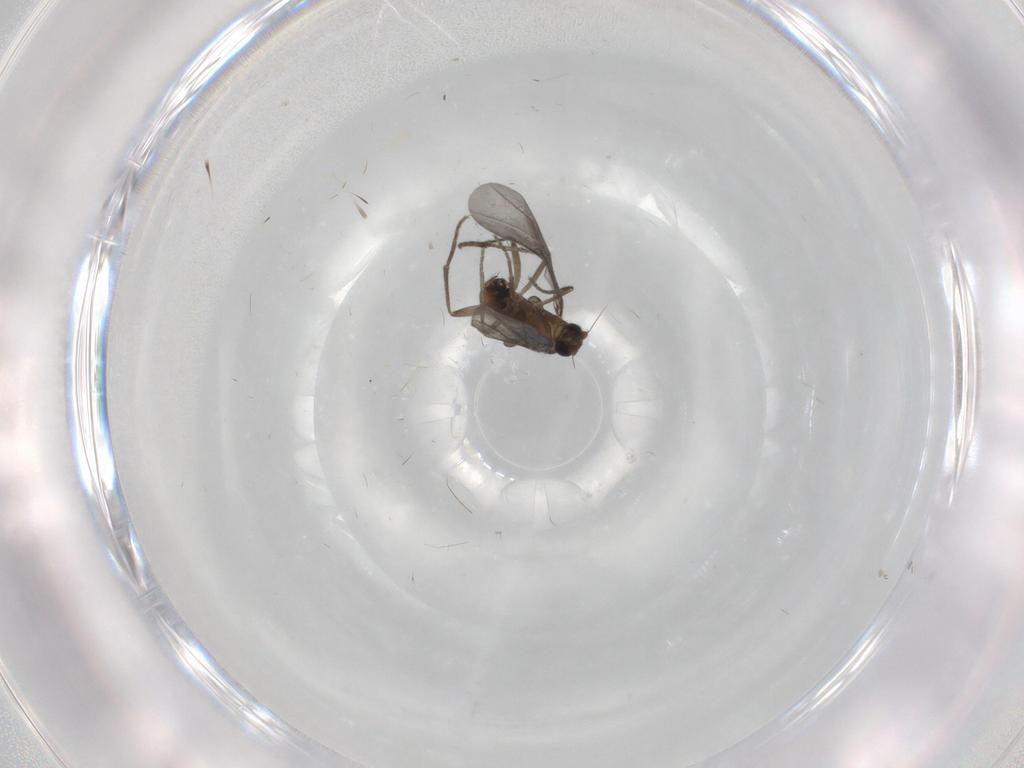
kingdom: Animalia
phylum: Arthropoda
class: Insecta
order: Diptera
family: Phoridae
